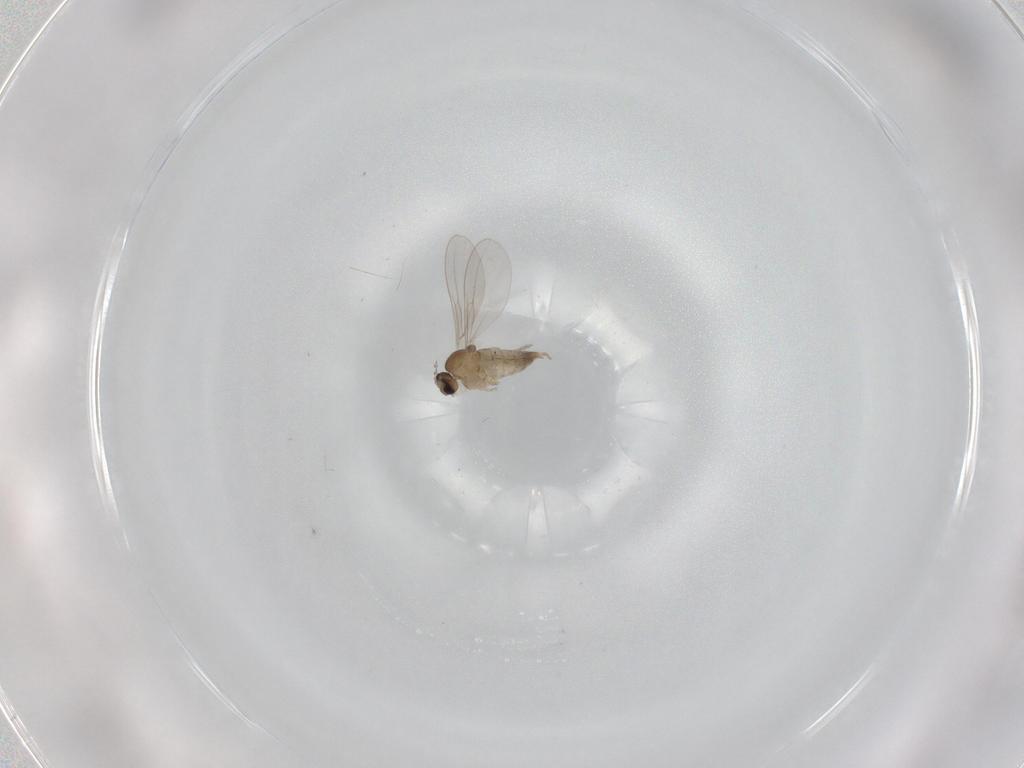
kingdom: Animalia
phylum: Arthropoda
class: Insecta
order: Diptera
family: Cecidomyiidae
